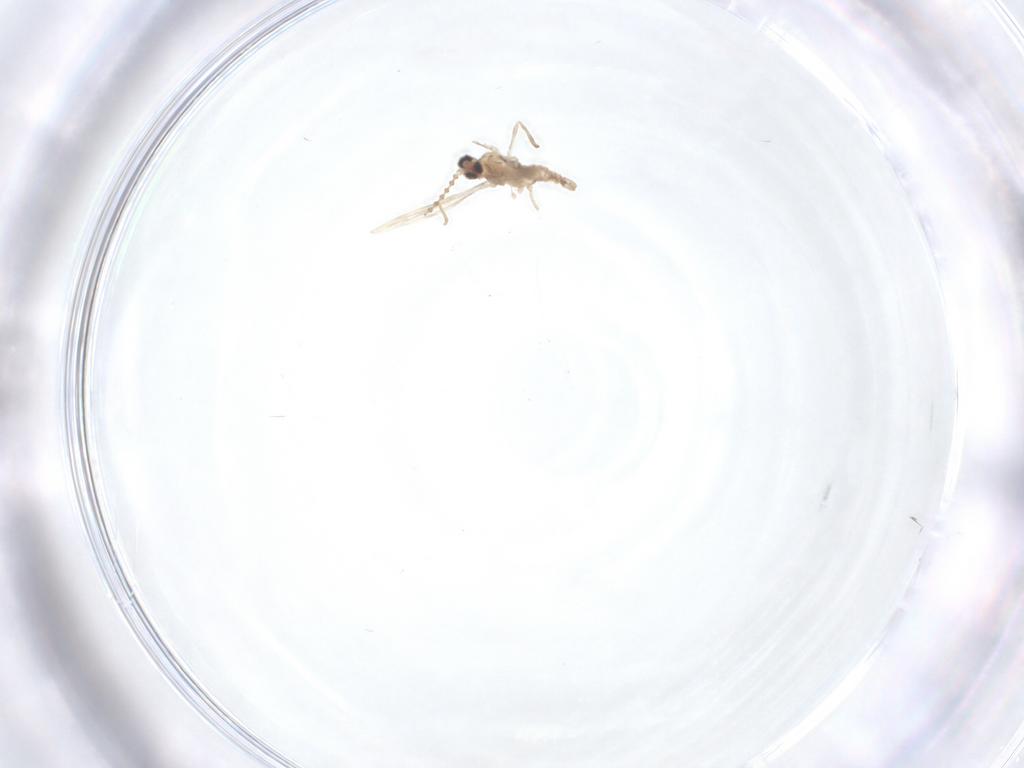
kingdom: Animalia
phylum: Arthropoda
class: Insecta
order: Diptera
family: Cecidomyiidae
